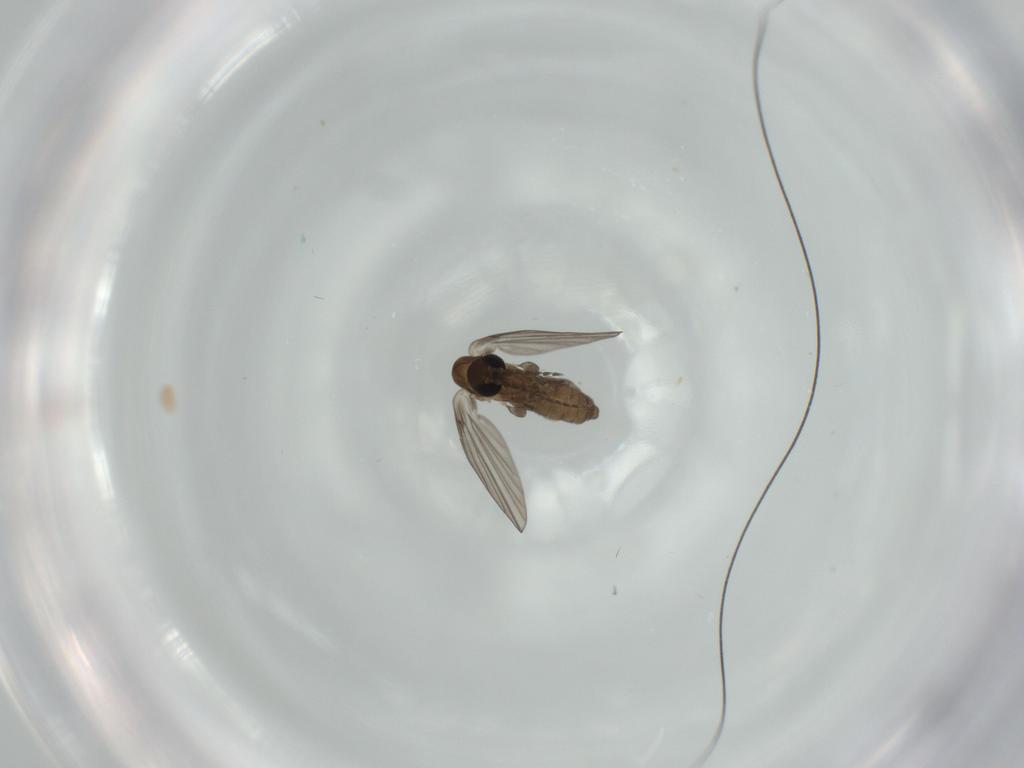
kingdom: Animalia
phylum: Arthropoda
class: Insecta
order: Diptera
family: Psychodidae
